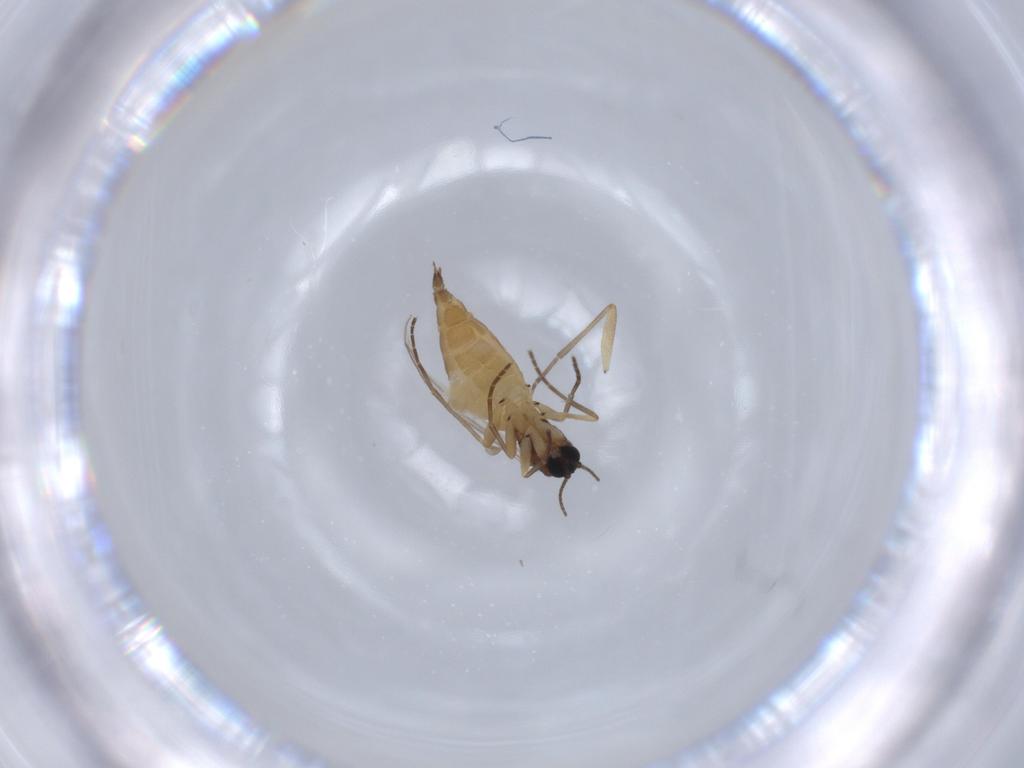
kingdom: Animalia
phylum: Arthropoda
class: Insecta
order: Diptera
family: Sciaridae
